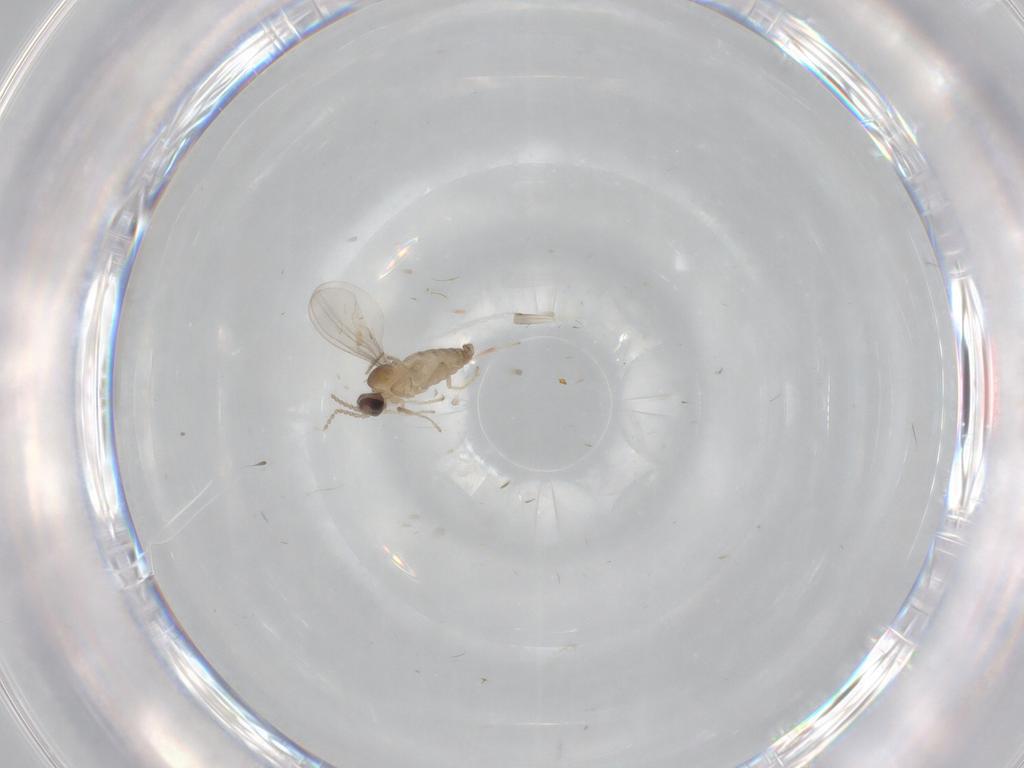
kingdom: Animalia
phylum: Arthropoda
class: Insecta
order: Diptera
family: Cecidomyiidae
